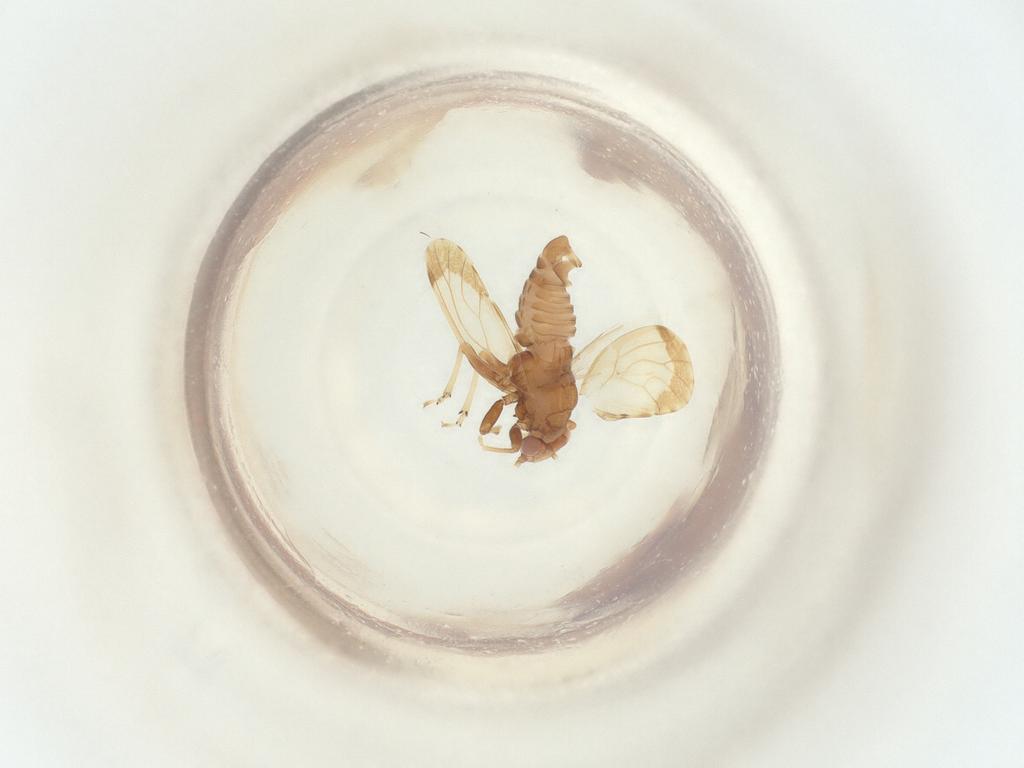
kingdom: Animalia
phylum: Arthropoda
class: Insecta
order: Hemiptera
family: Psyllidae
